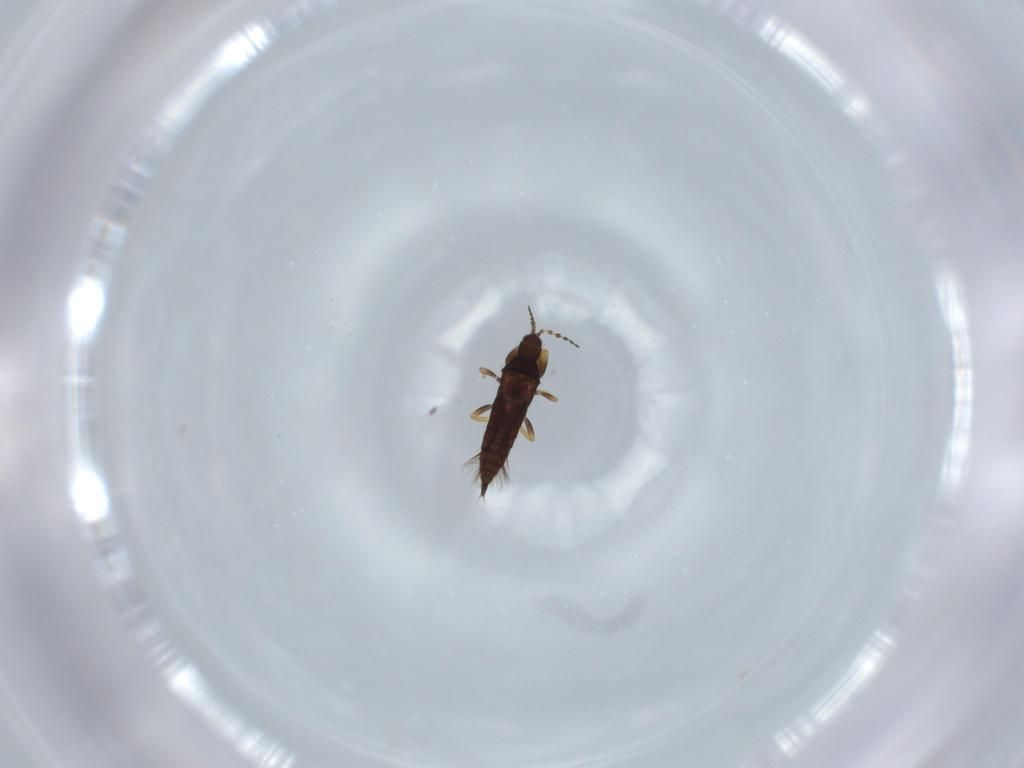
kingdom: Animalia
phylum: Arthropoda
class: Insecta
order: Thysanoptera
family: Phlaeothripidae
